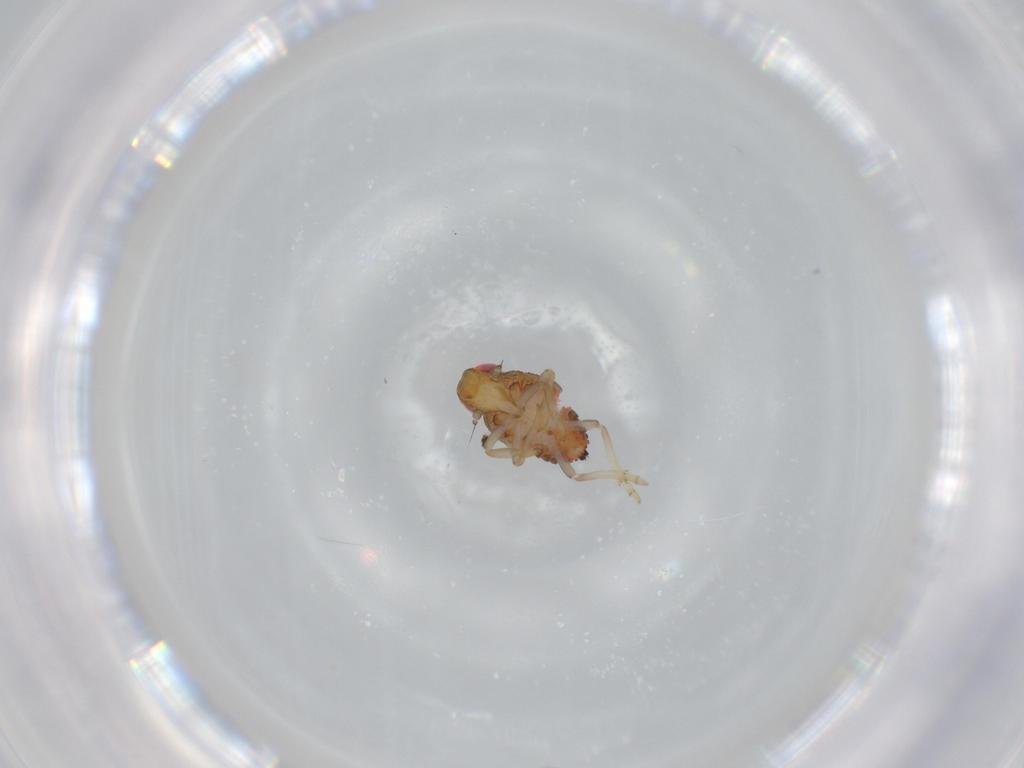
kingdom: Animalia
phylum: Arthropoda
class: Insecta
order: Hemiptera
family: Issidae
